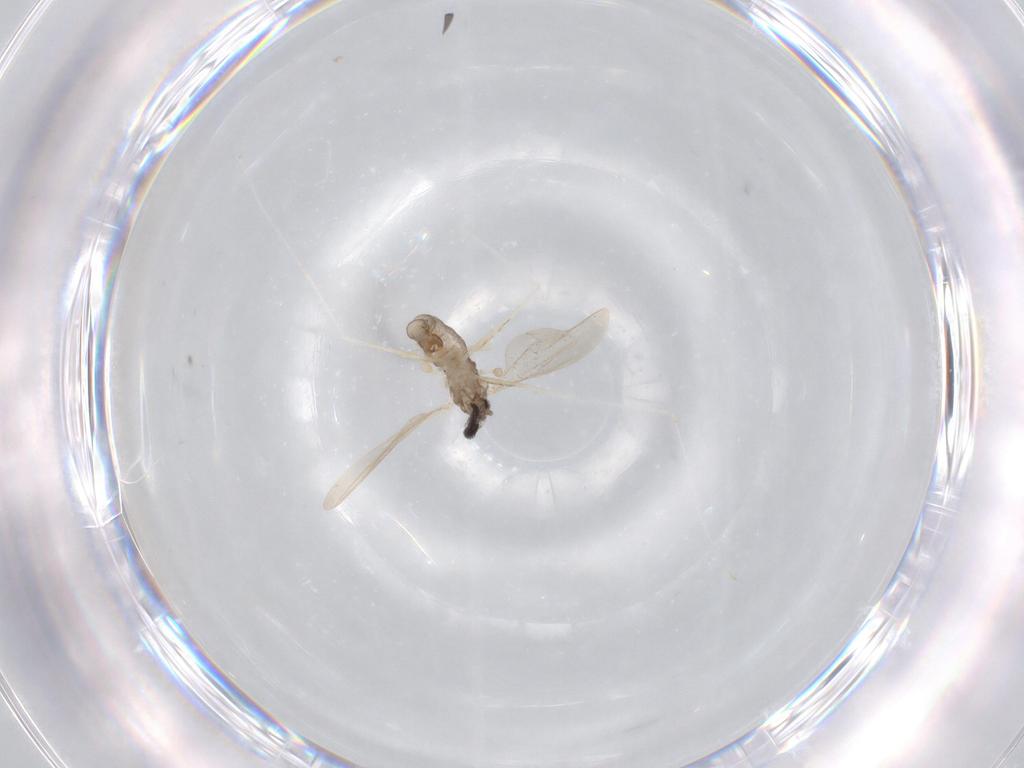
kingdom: Animalia
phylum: Arthropoda
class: Insecta
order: Diptera
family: Cecidomyiidae
